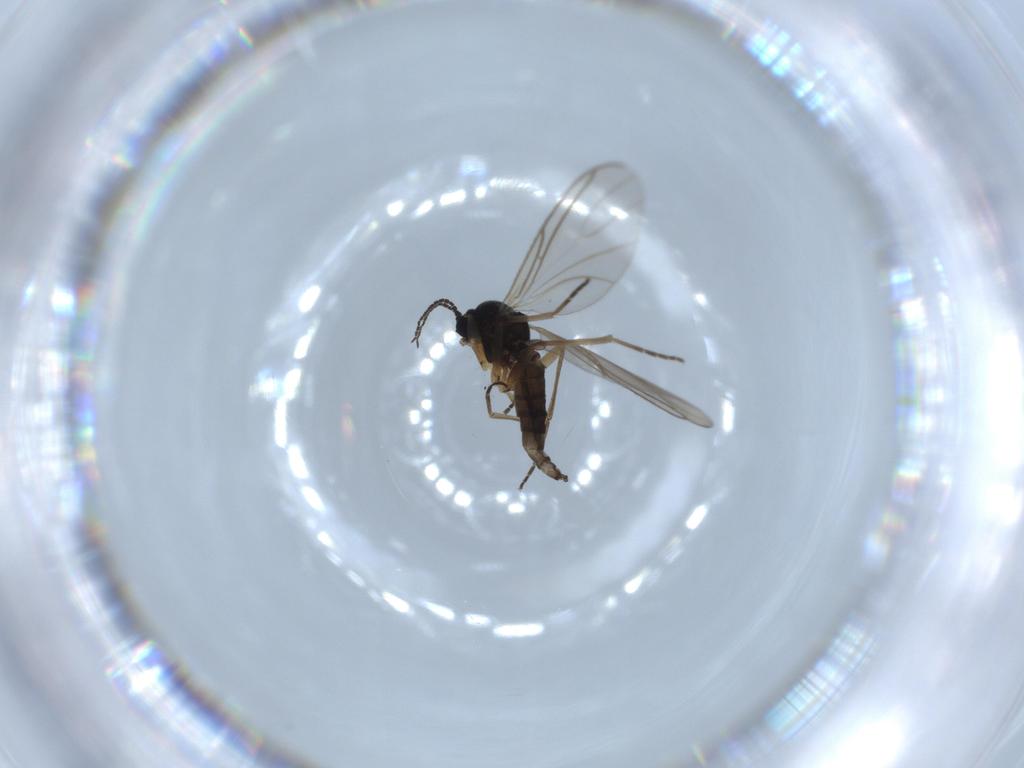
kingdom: Animalia
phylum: Arthropoda
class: Insecta
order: Diptera
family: Sciaridae
